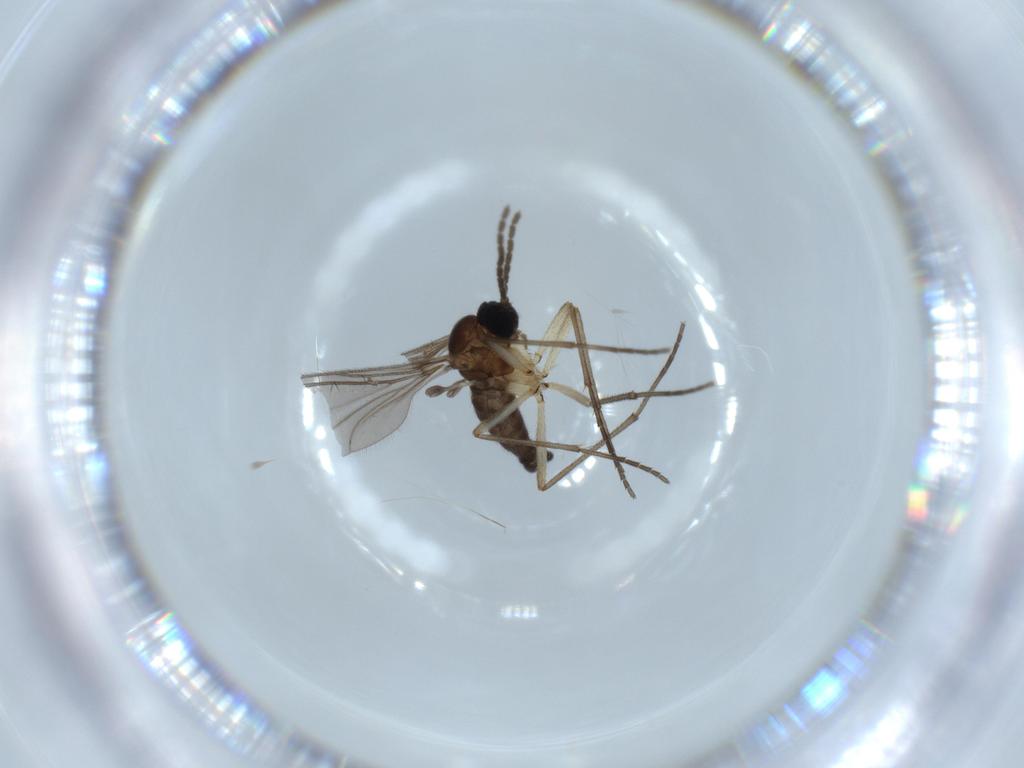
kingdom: Animalia
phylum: Arthropoda
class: Insecta
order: Diptera
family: Sciaridae
